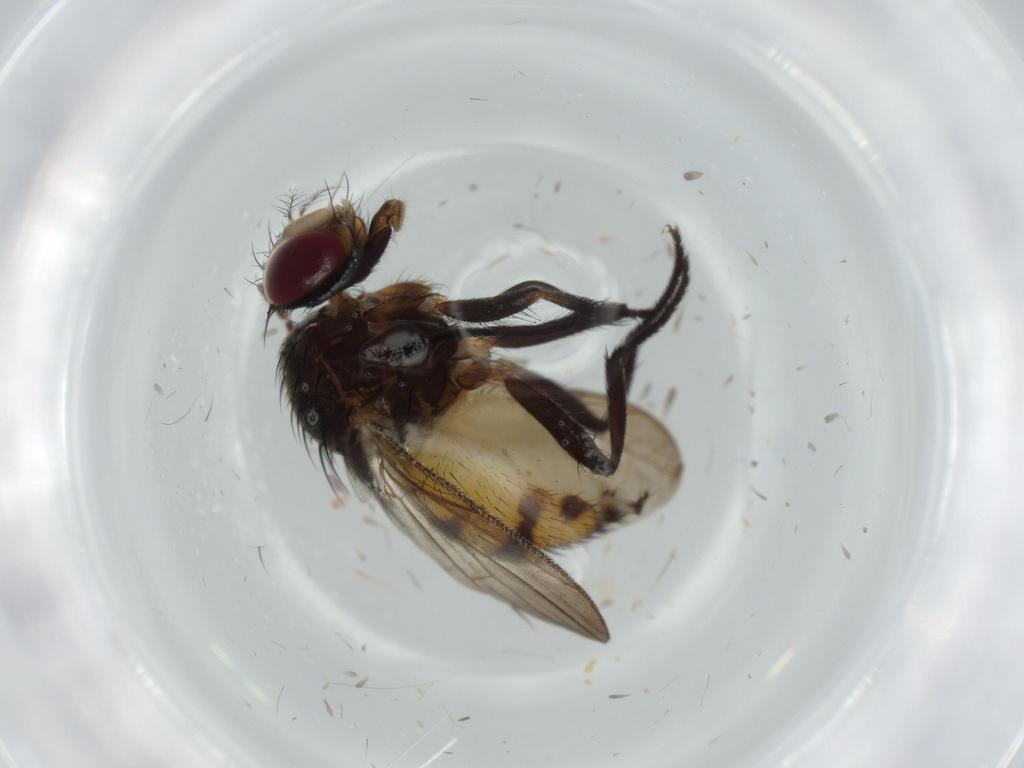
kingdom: Animalia
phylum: Arthropoda
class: Insecta
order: Diptera
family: Drosophilidae
